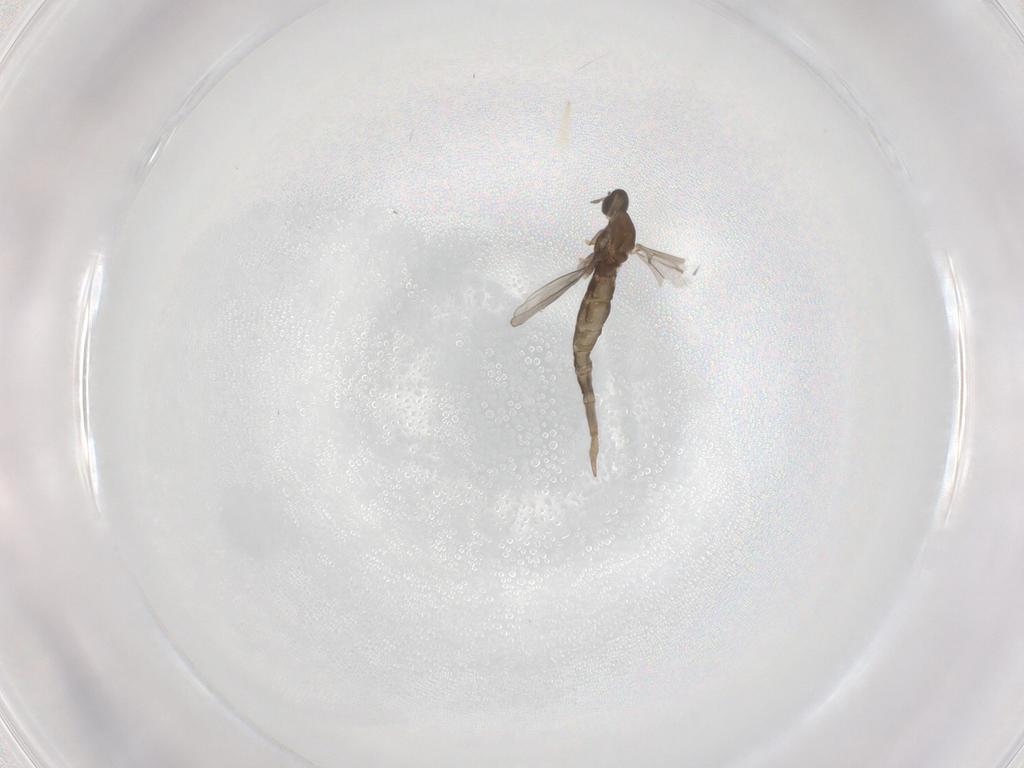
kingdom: Animalia
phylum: Arthropoda
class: Insecta
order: Diptera
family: Cecidomyiidae
